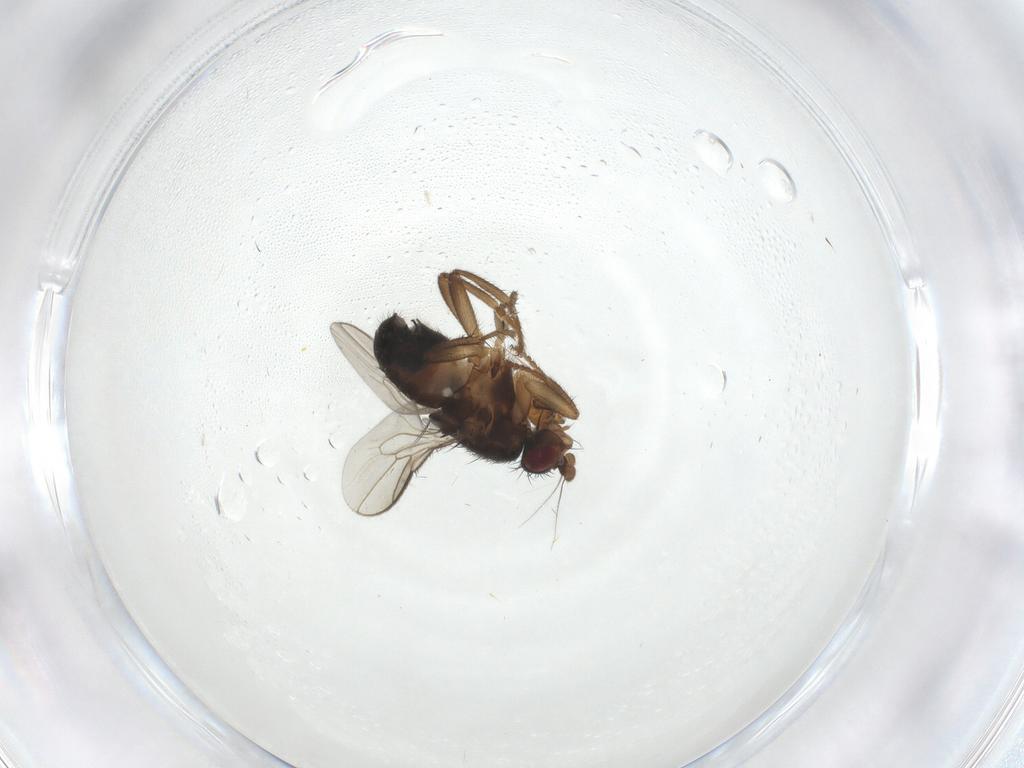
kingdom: Animalia
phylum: Arthropoda
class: Insecta
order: Diptera
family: Sphaeroceridae
